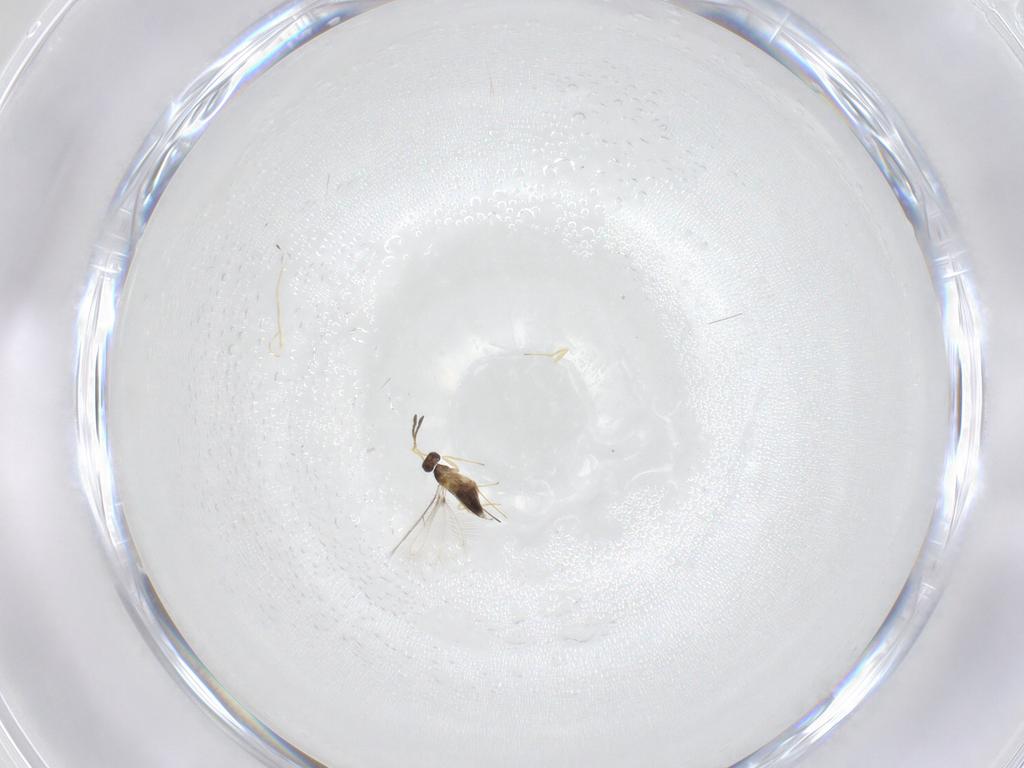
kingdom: Animalia
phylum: Arthropoda
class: Insecta
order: Hymenoptera
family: Mymaridae
